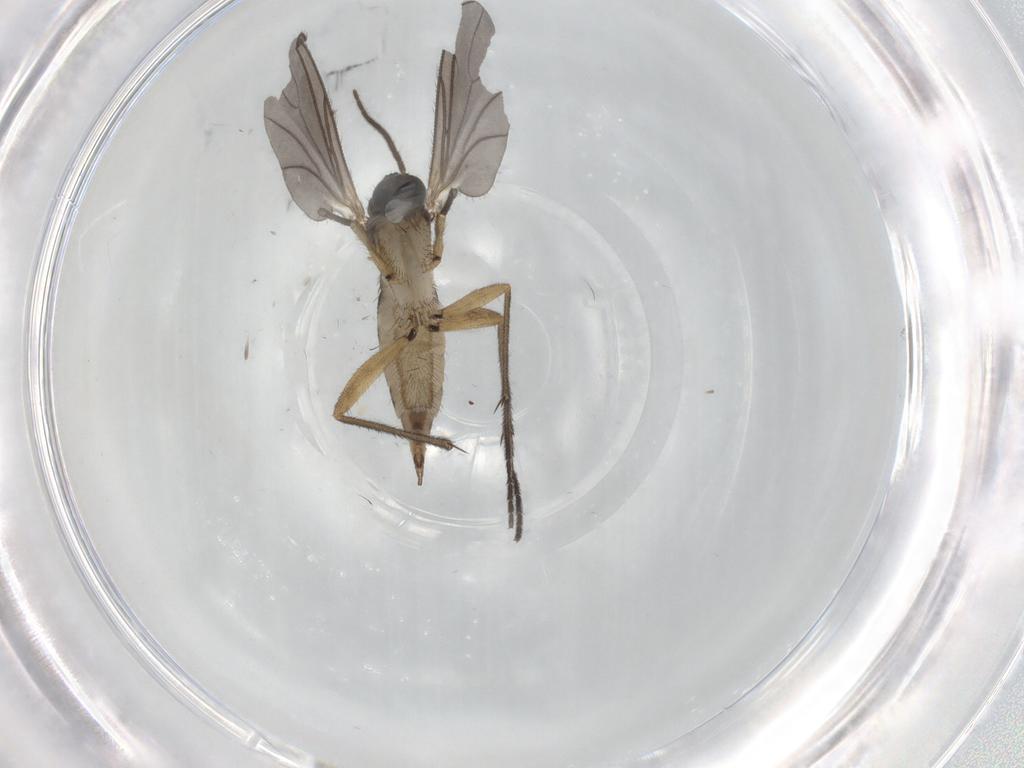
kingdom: Animalia
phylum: Arthropoda
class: Insecta
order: Diptera
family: Sciaridae
